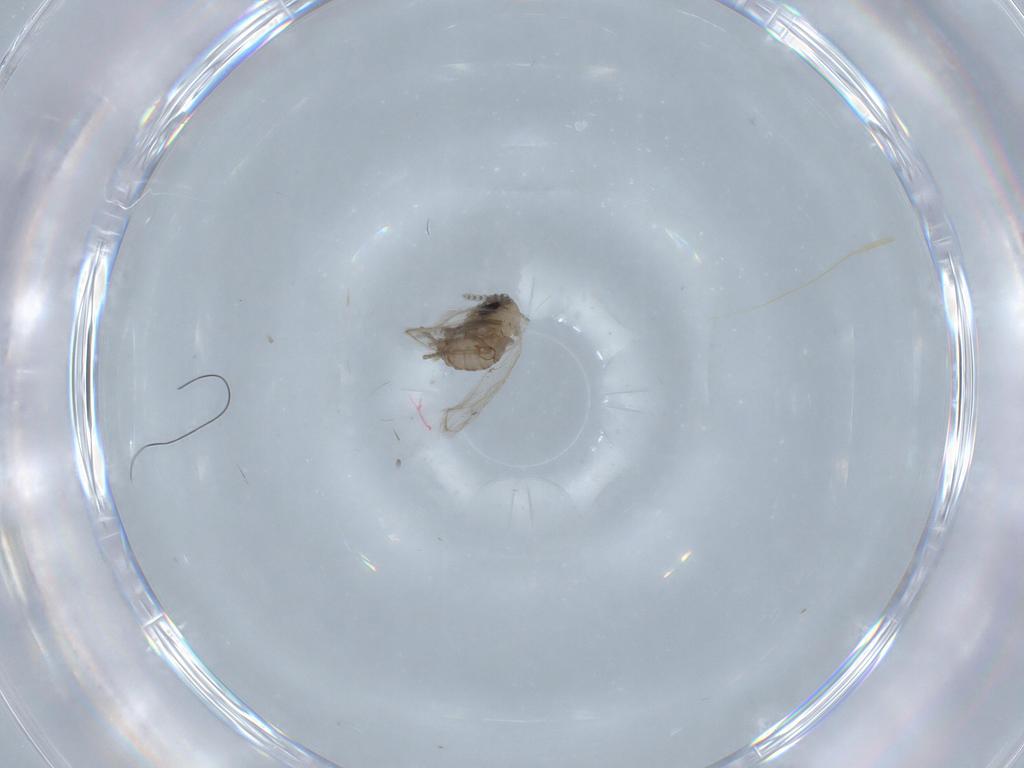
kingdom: Animalia
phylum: Arthropoda
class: Insecta
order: Diptera
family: Psychodidae
